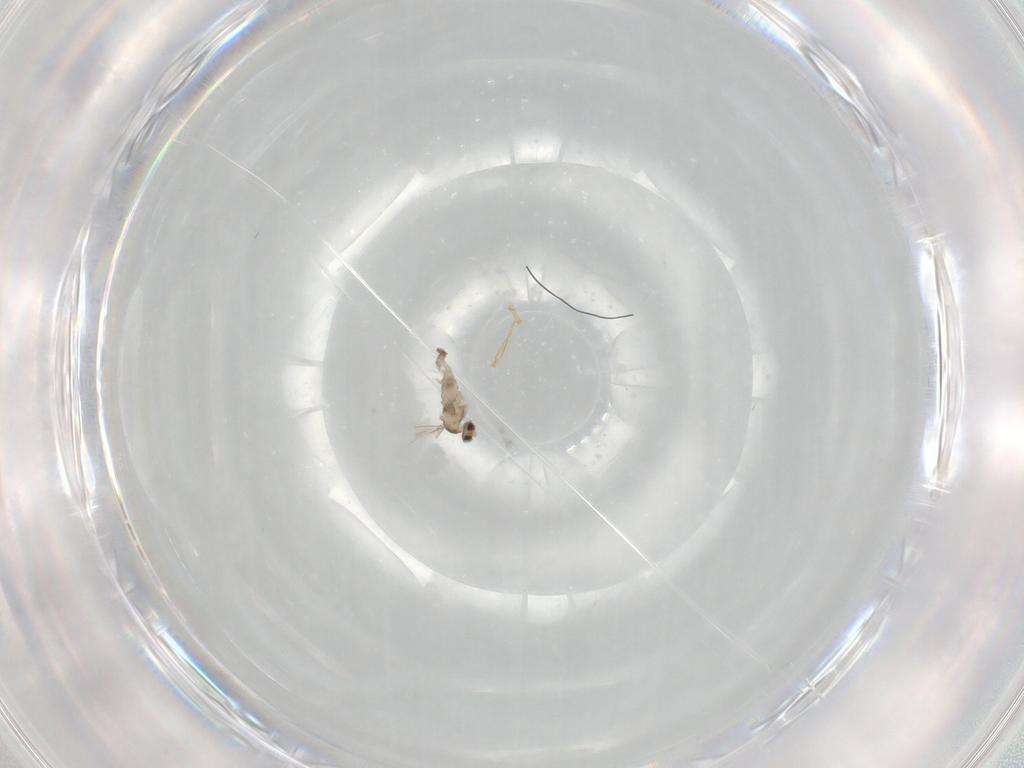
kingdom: Animalia
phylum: Arthropoda
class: Insecta
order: Diptera
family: Cecidomyiidae
